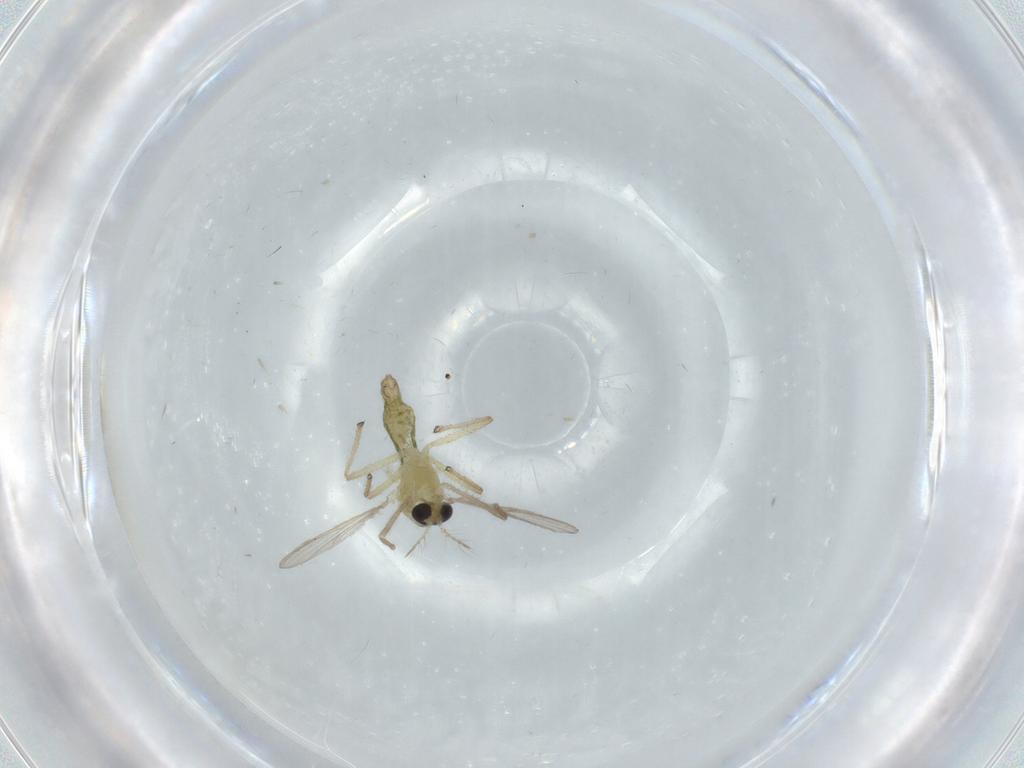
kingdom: Animalia
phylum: Arthropoda
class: Insecta
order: Diptera
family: Chironomidae
